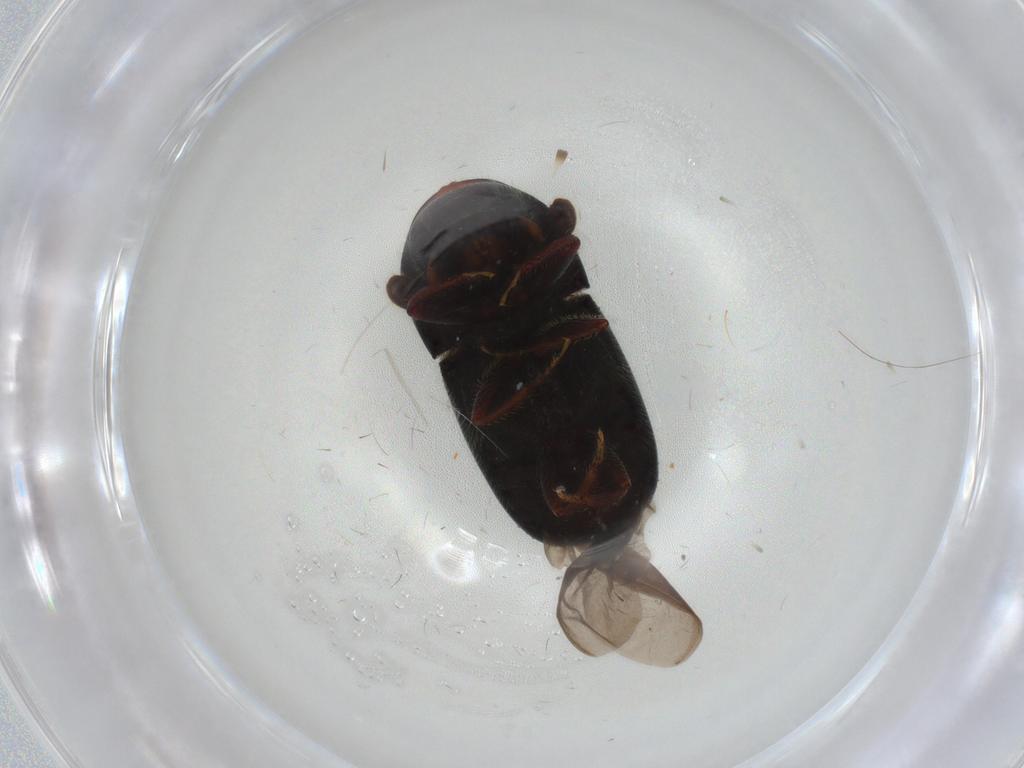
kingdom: Animalia
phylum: Arthropoda
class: Insecta
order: Coleoptera
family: Curculionidae
